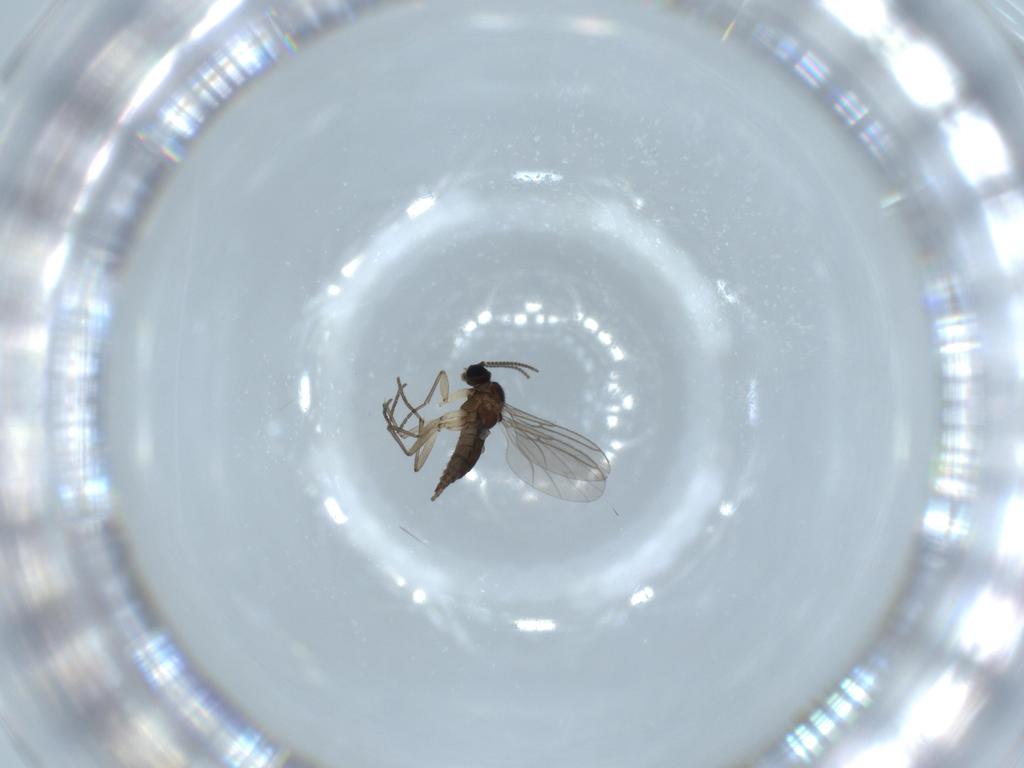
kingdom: Animalia
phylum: Arthropoda
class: Insecta
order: Diptera
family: Sciaridae
